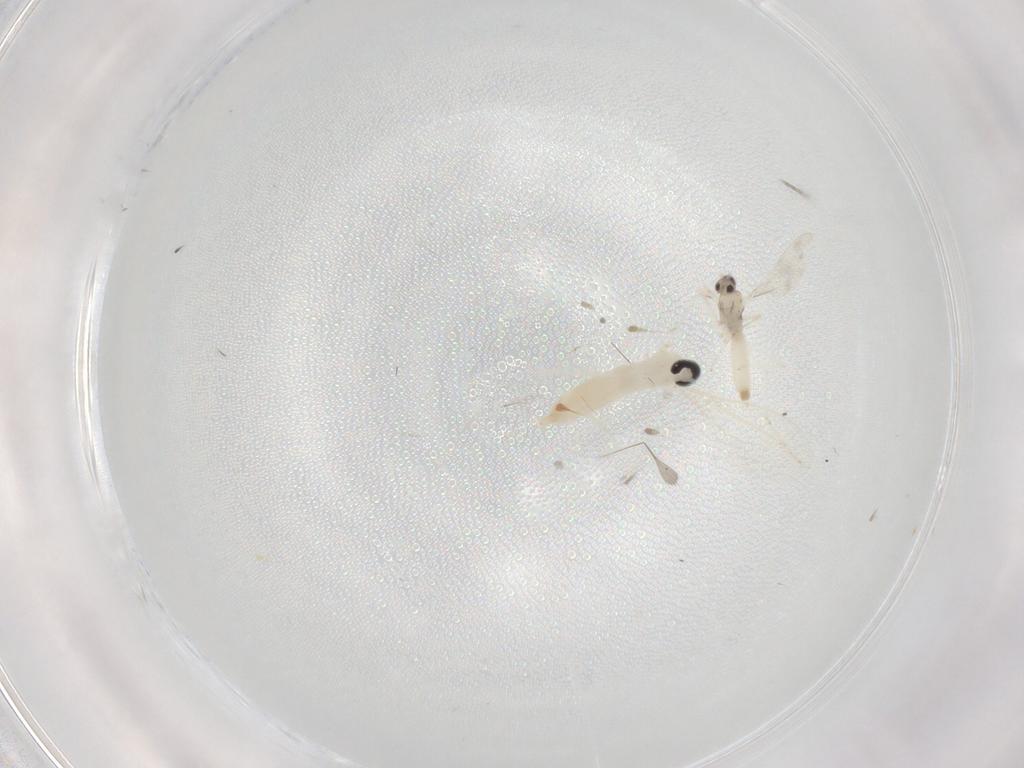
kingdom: Animalia
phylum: Arthropoda
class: Insecta
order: Diptera
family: Cecidomyiidae
